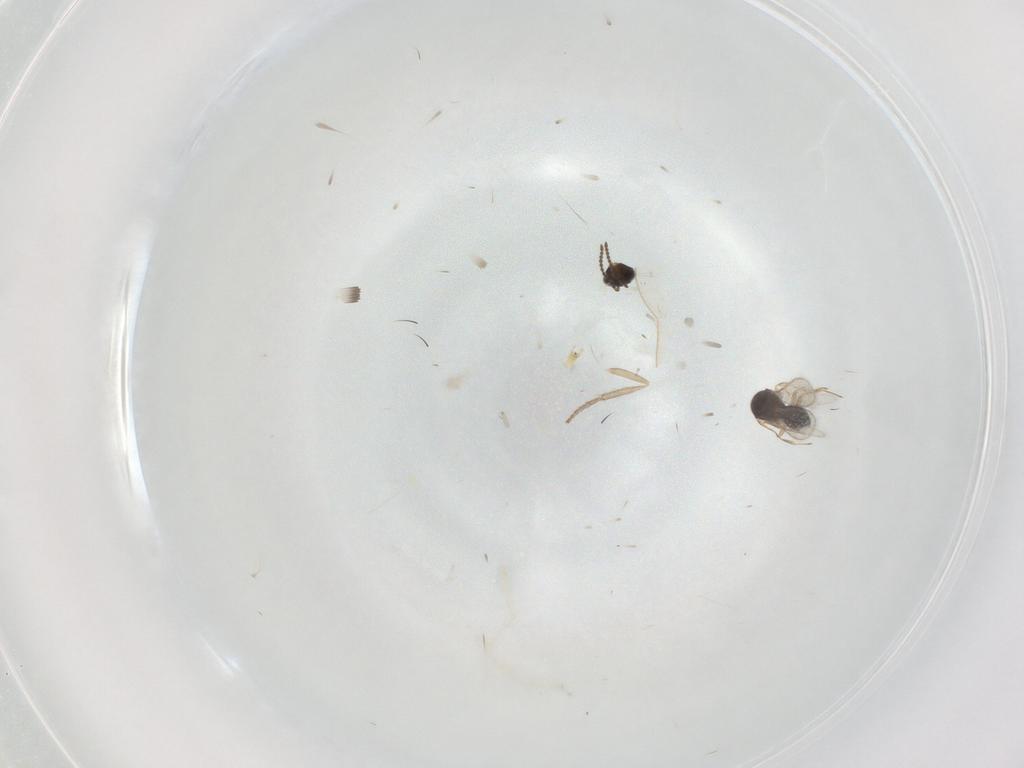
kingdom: Animalia
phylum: Arthropoda
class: Insecta
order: Hymenoptera
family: Scelionidae
